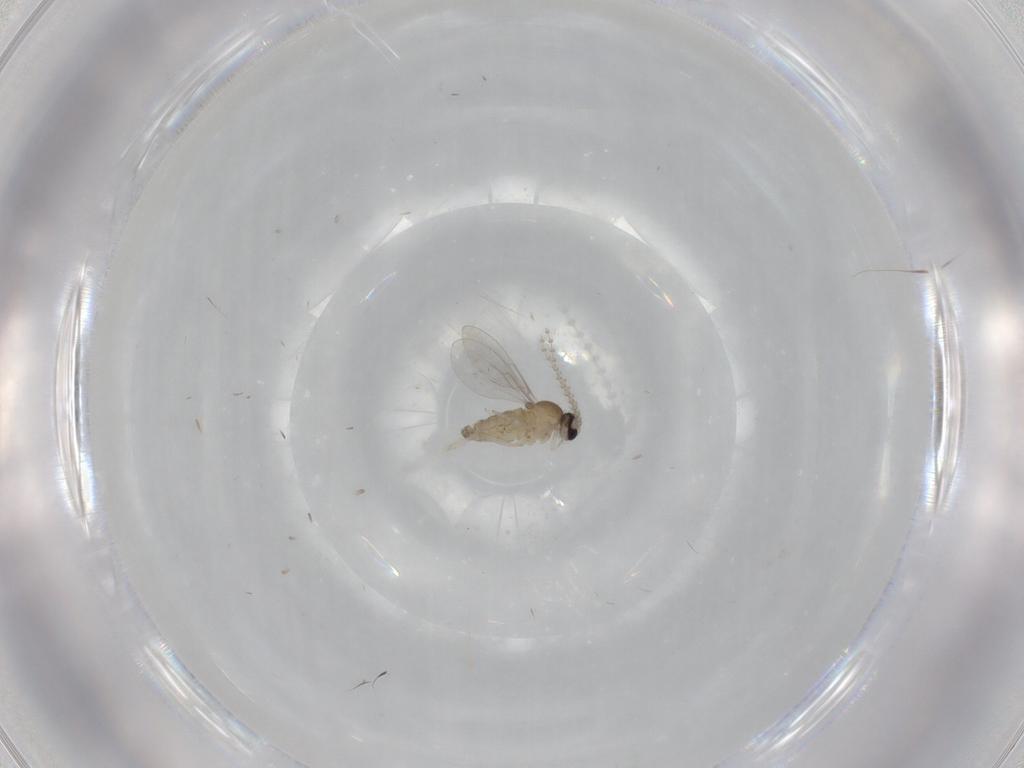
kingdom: Animalia
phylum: Arthropoda
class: Insecta
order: Diptera
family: Cecidomyiidae
